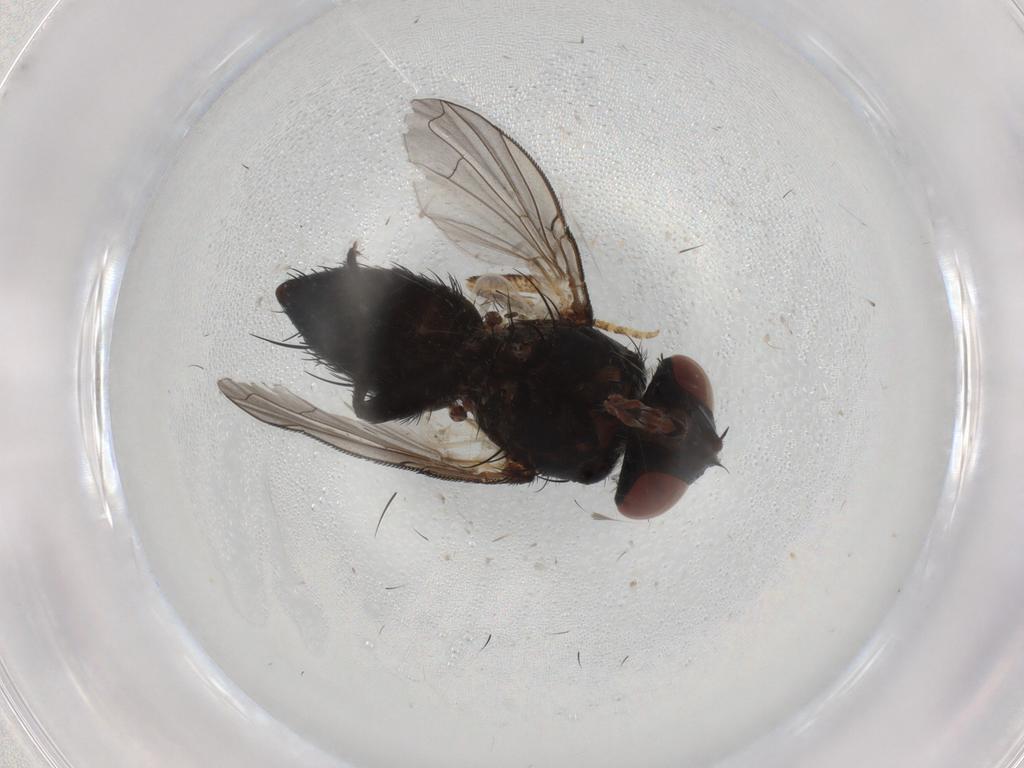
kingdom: Animalia
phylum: Arthropoda
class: Insecta
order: Diptera
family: Tachinidae
